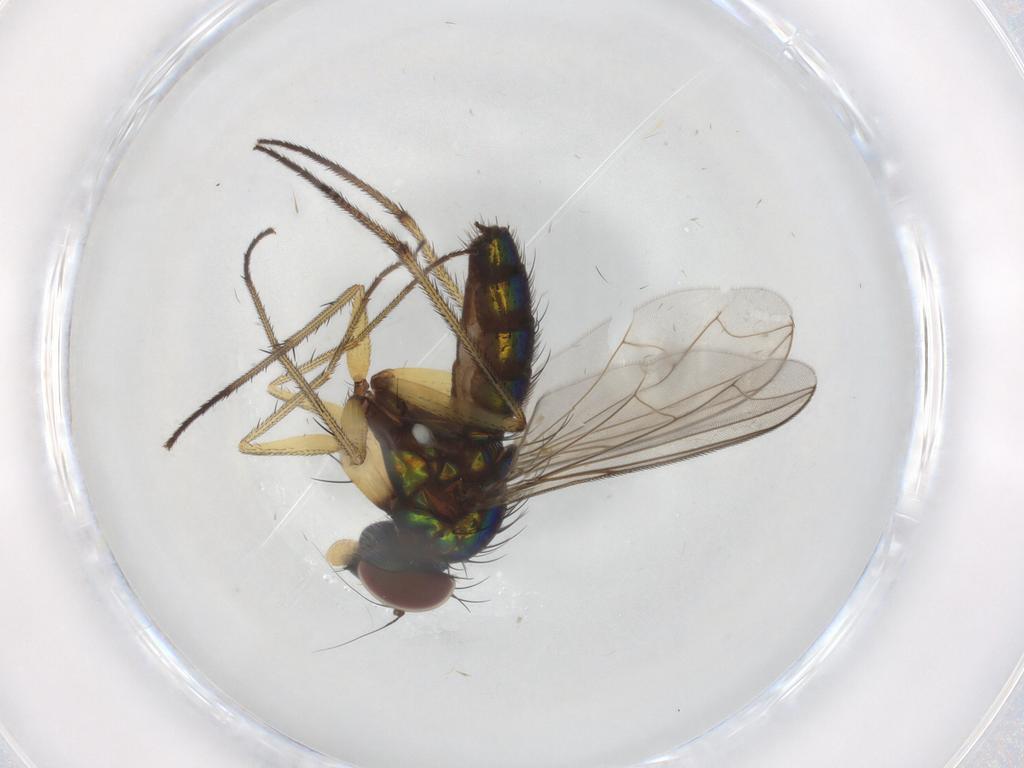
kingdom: Animalia
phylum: Arthropoda
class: Insecta
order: Diptera
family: Dolichopodidae
